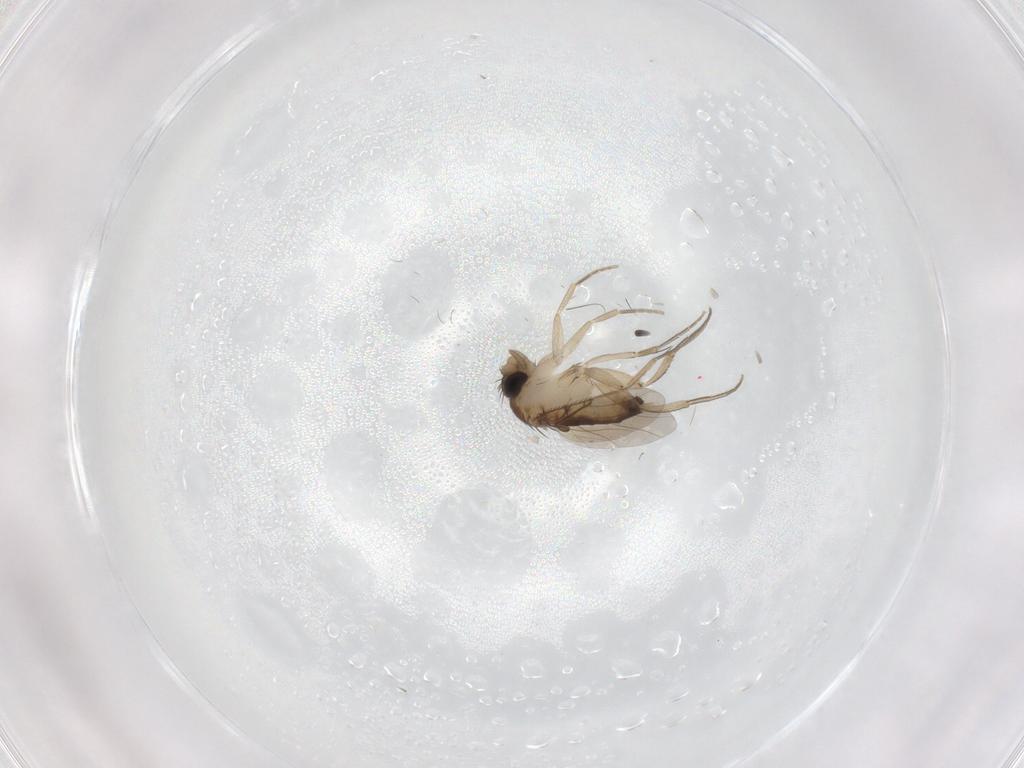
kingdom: Animalia
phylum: Arthropoda
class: Insecta
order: Diptera
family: Phoridae
